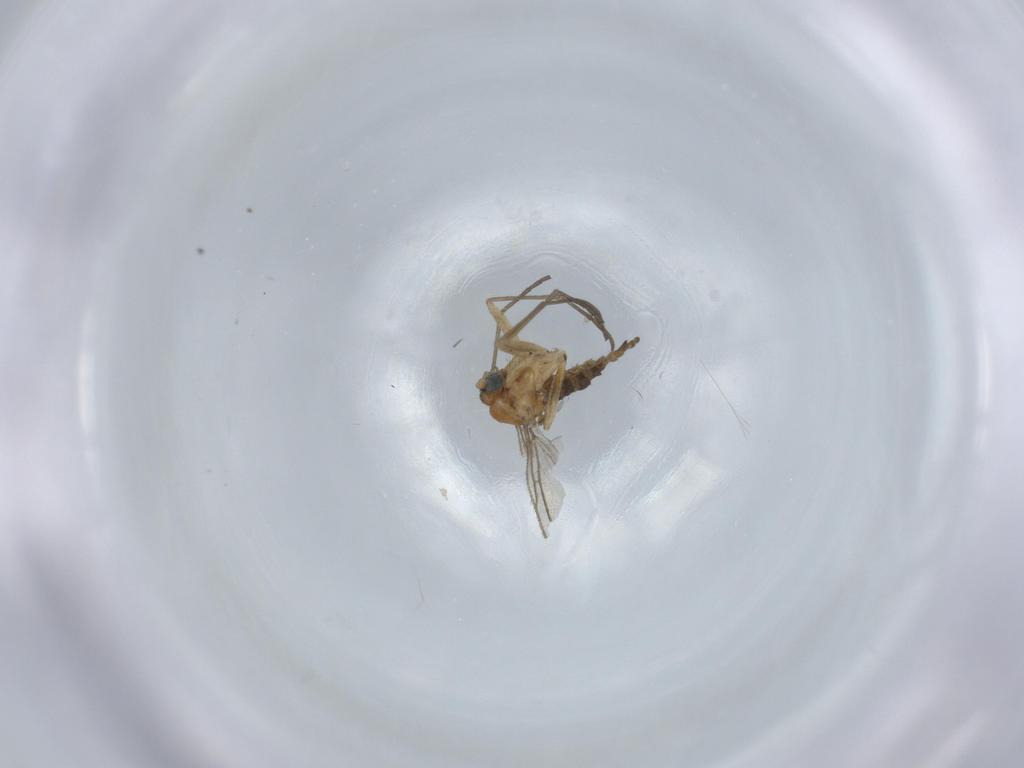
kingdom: Animalia
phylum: Arthropoda
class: Insecta
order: Diptera
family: Sciaridae
